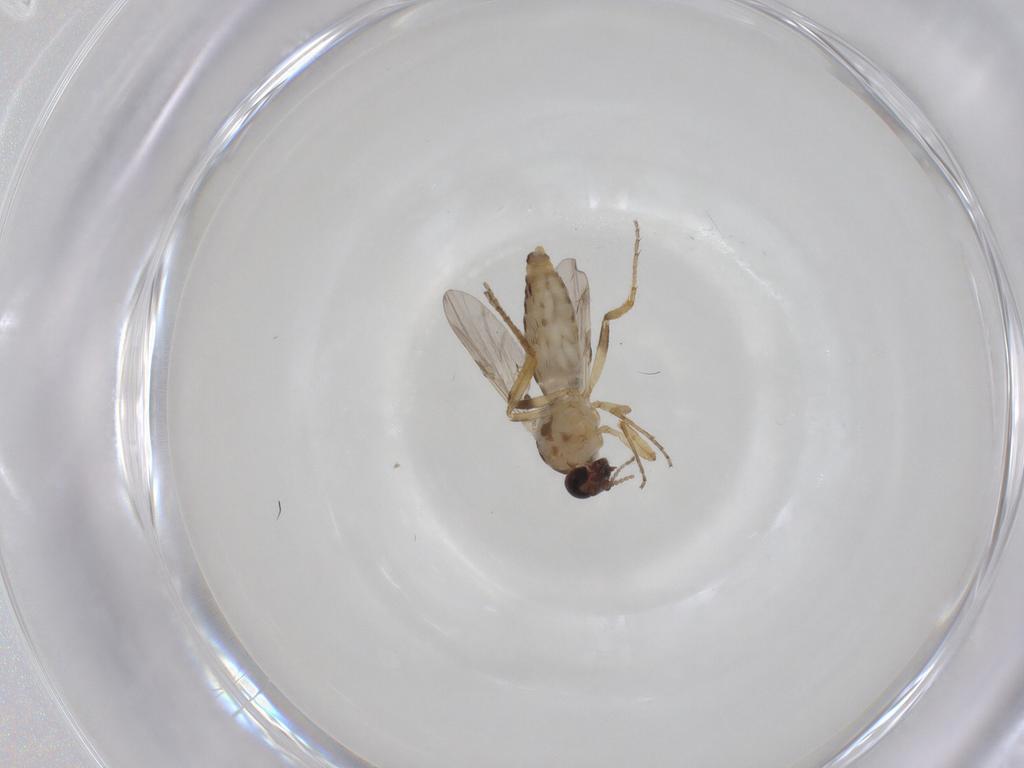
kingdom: Animalia
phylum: Arthropoda
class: Insecta
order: Diptera
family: Ceratopogonidae
